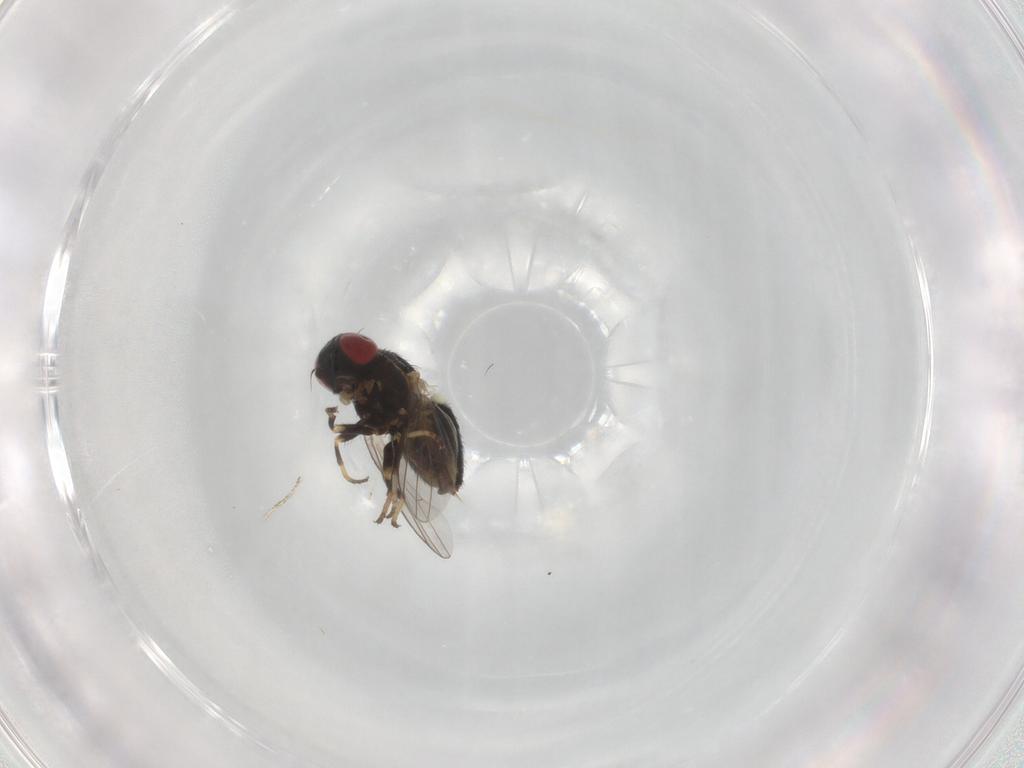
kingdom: Animalia
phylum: Arthropoda
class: Insecta
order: Diptera
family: Chamaemyiidae
